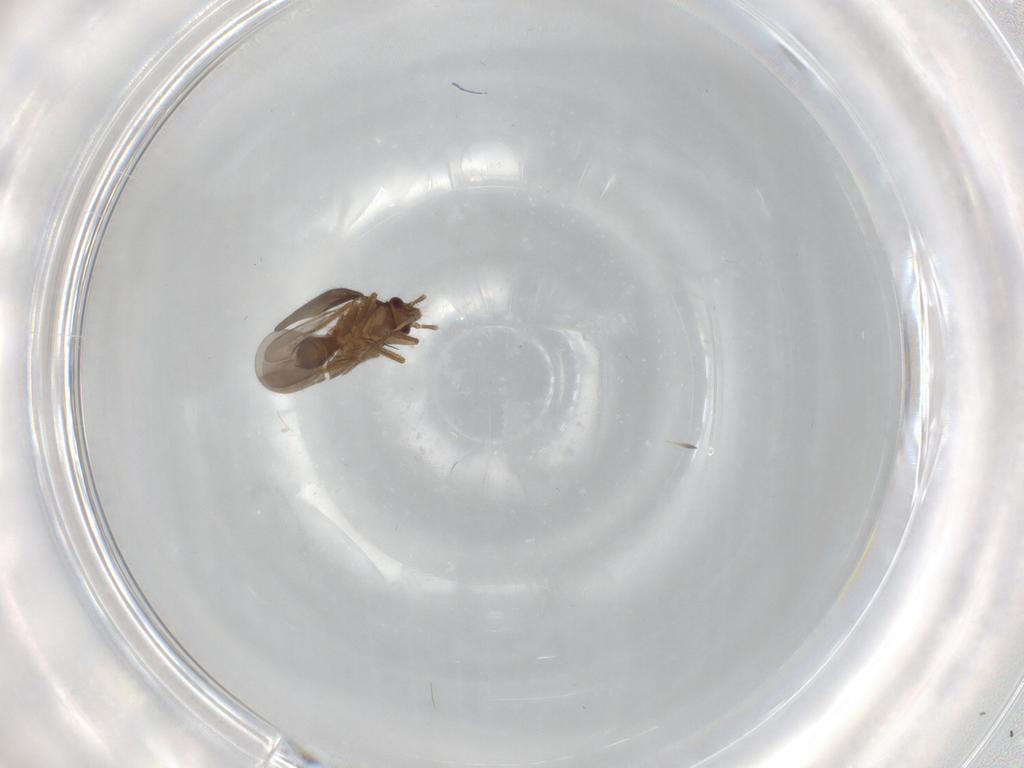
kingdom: Animalia
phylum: Arthropoda
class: Insecta
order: Hemiptera
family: Ceratocombidae
